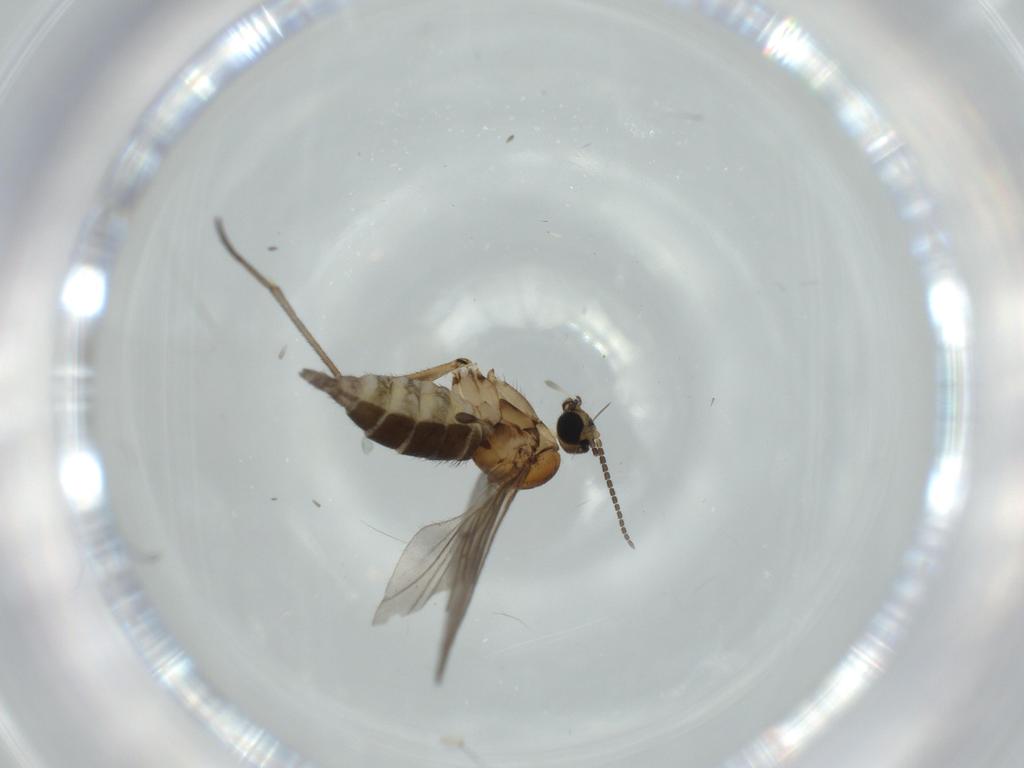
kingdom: Animalia
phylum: Arthropoda
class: Insecta
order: Diptera
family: Sciaridae
